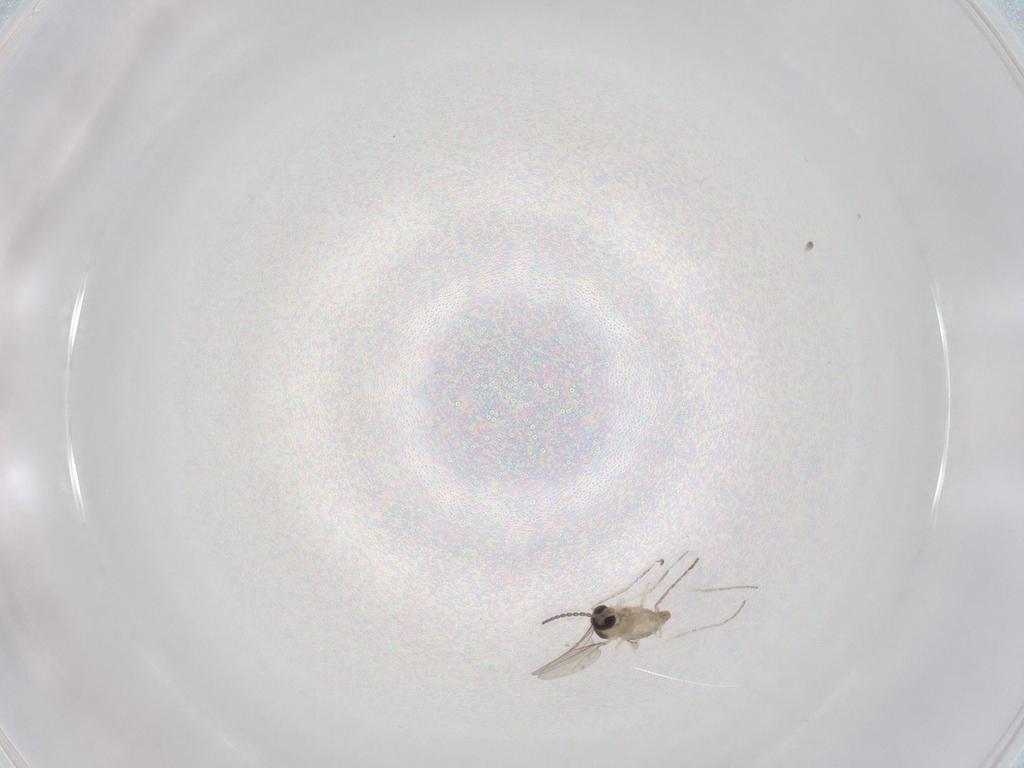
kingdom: Animalia
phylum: Arthropoda
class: Insecta
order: Diptera
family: Cecidomyiidae
